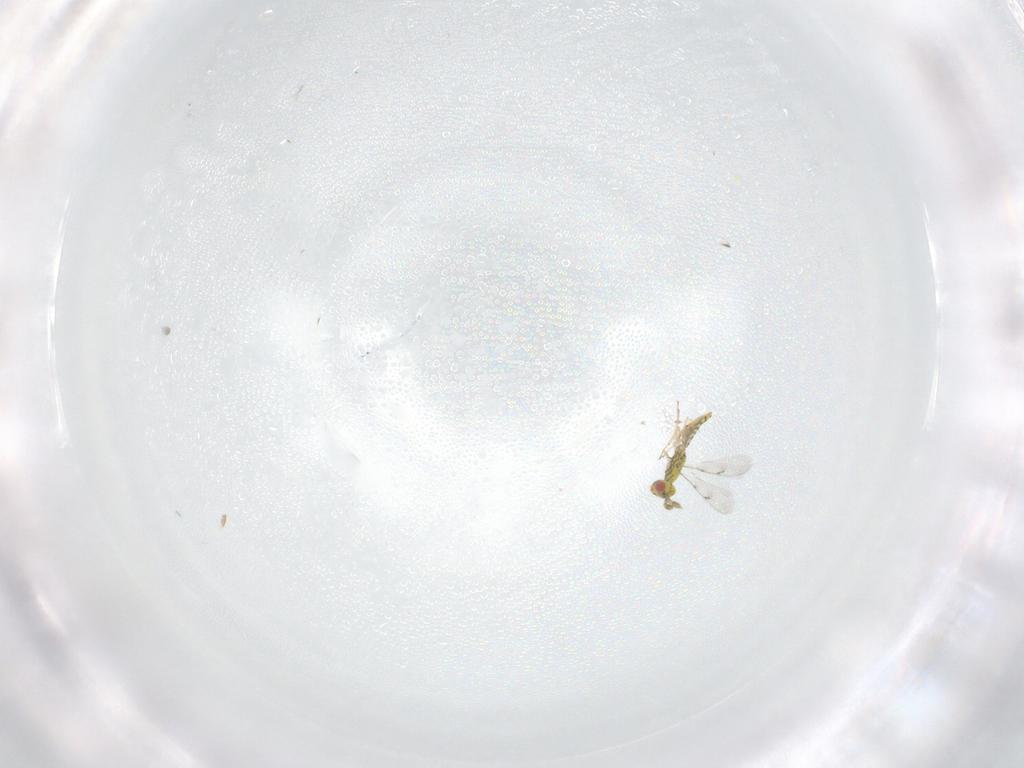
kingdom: Animalia
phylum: Arthropoda
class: Insecta
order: Hymenoptera
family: Eulophidae
